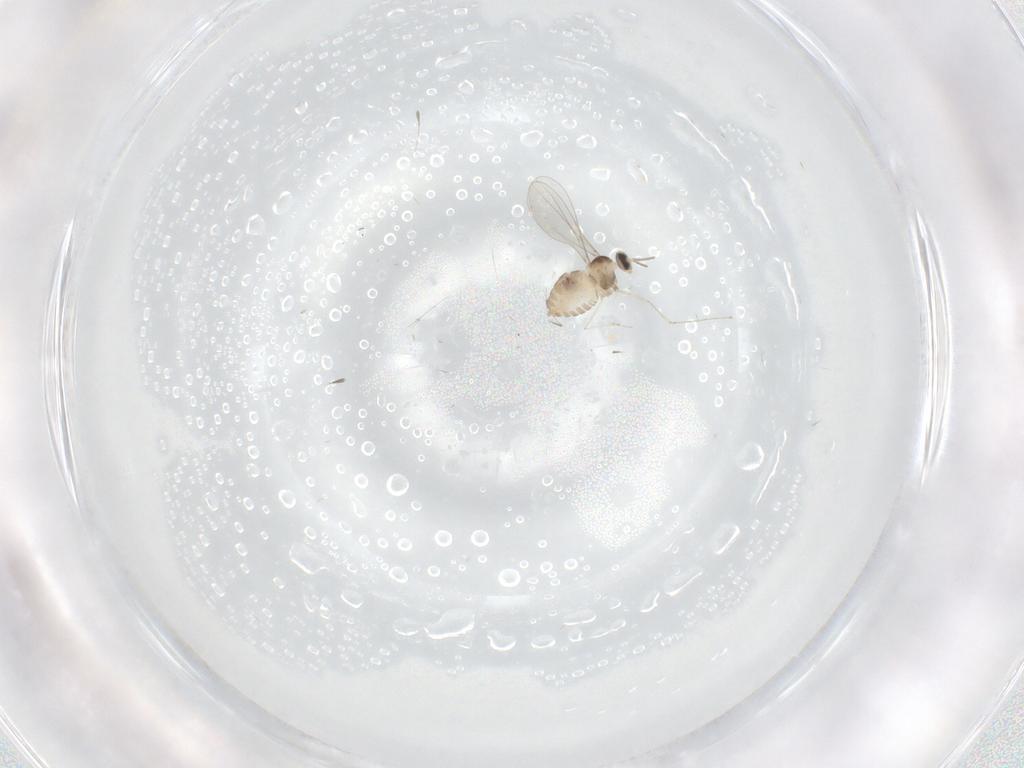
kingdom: Animalia
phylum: Arthropoda
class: Insecta
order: Diptera
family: Cecidomyiidae
